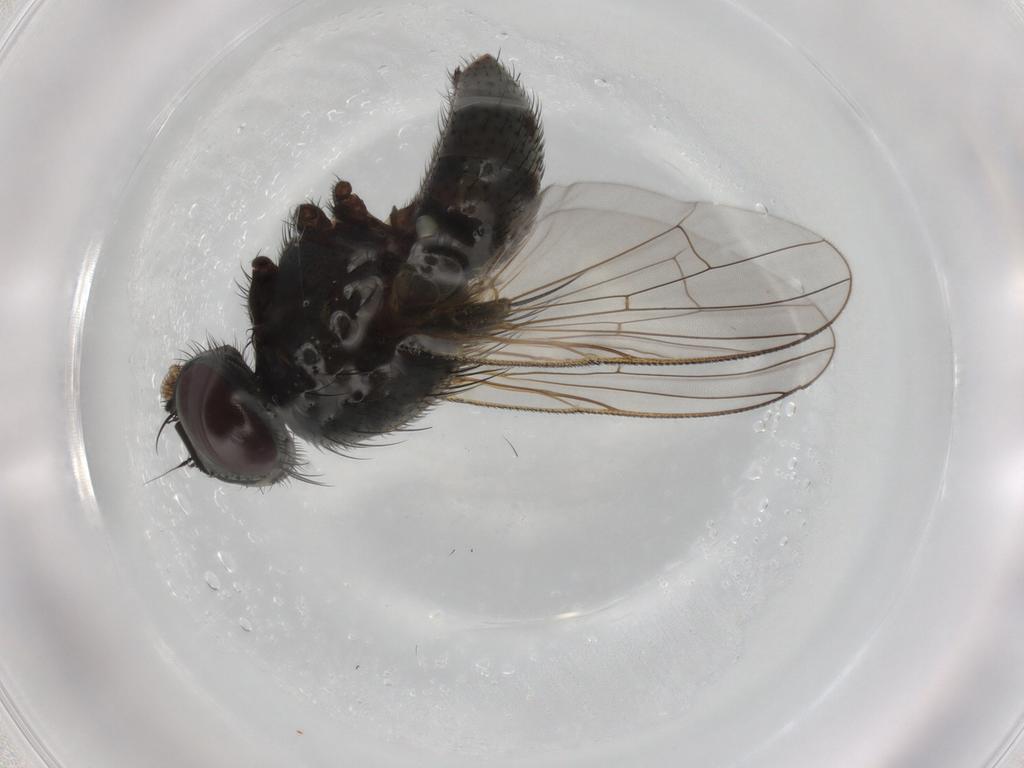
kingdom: Animalia
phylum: Arthropoda
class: Insecta
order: Diptera
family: Muscidae
